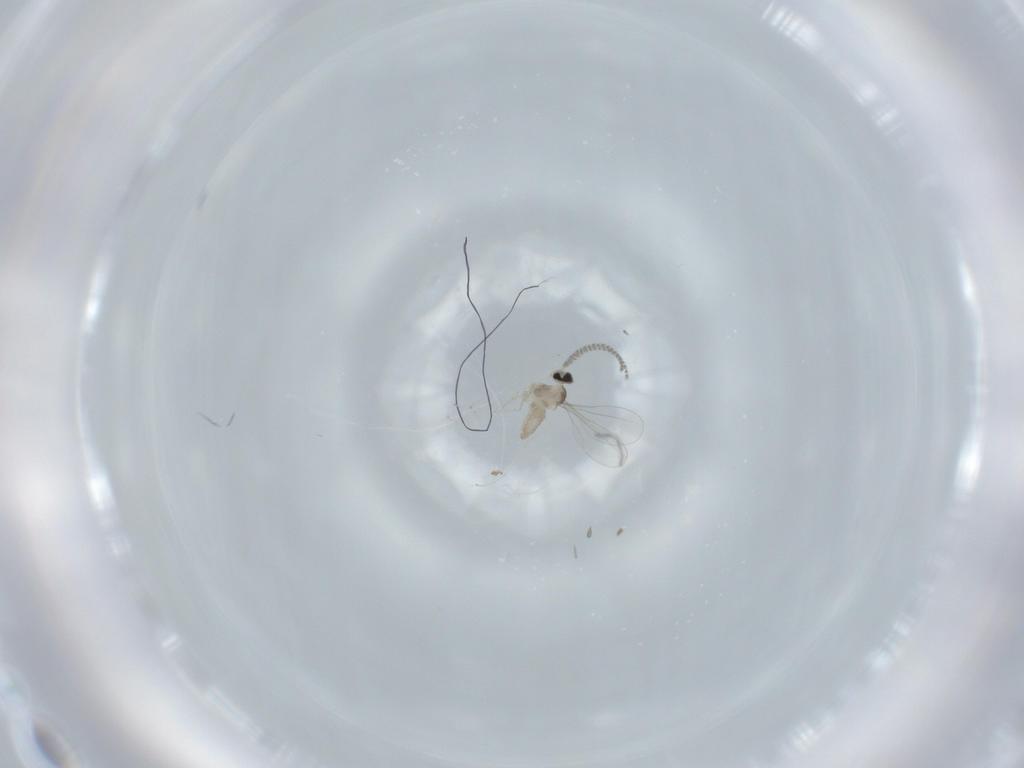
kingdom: Animalia
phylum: Arthropoda
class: Insecta
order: Diptera
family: Cecidomyiidae
